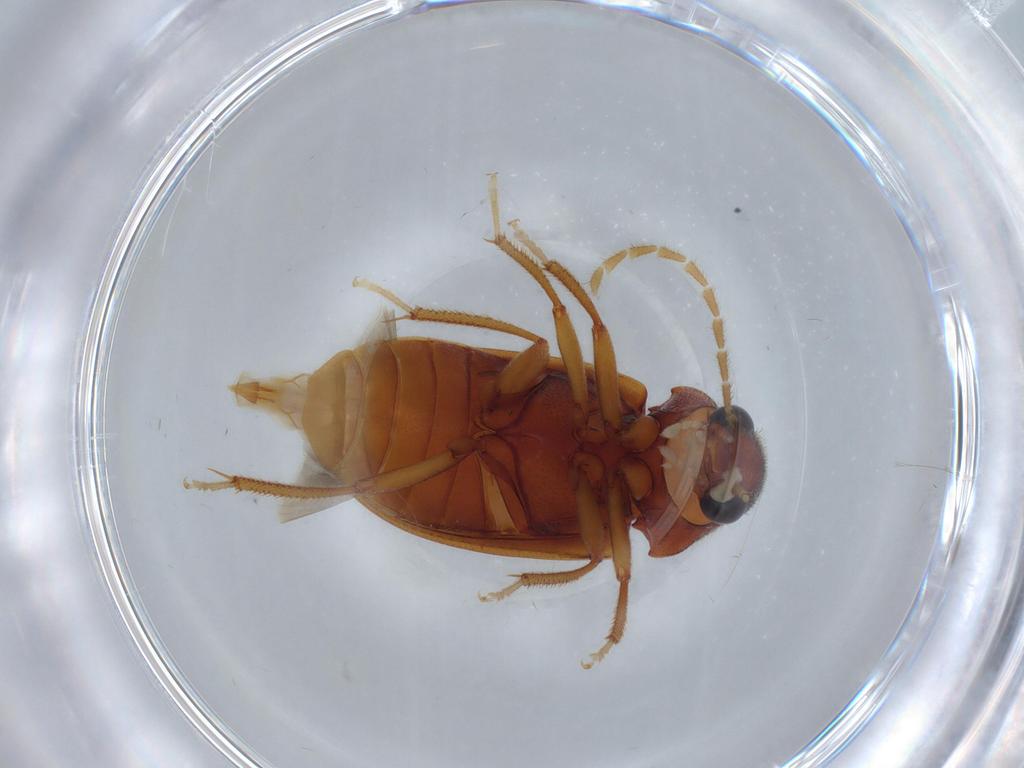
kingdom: Animalia
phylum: Arthropoda
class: Insecta
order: Coleoptera
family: Ptilodactylidae
